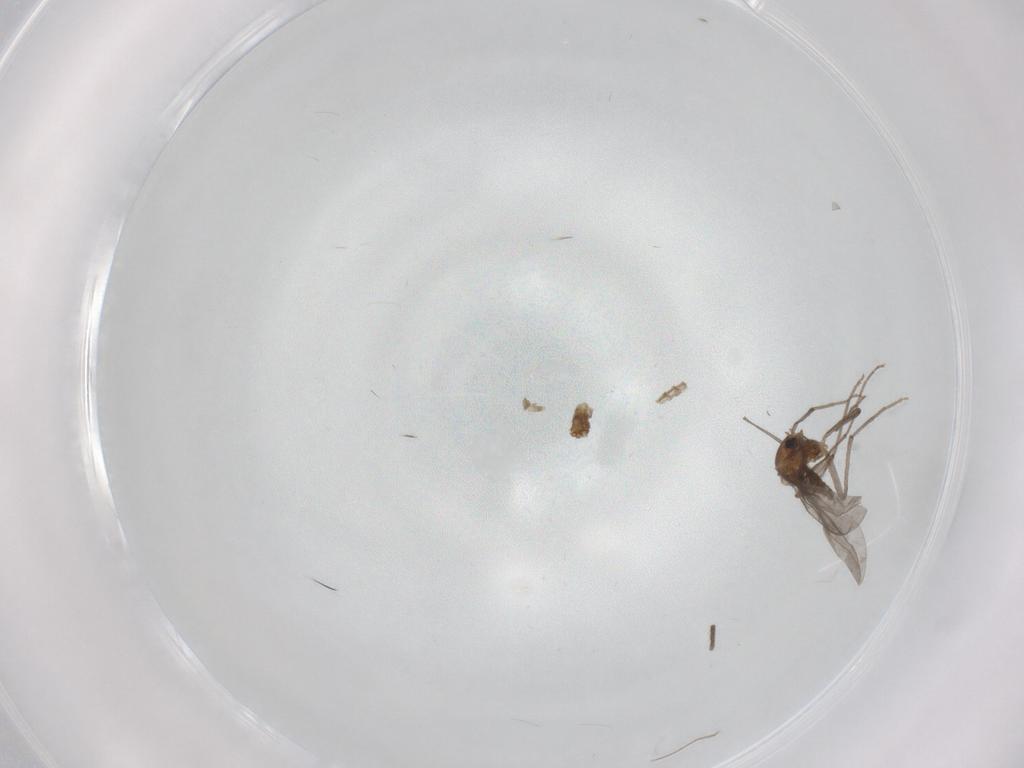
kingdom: Animalia
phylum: Arthropoda
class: Insecta
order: Diptera
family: Chironomidae
